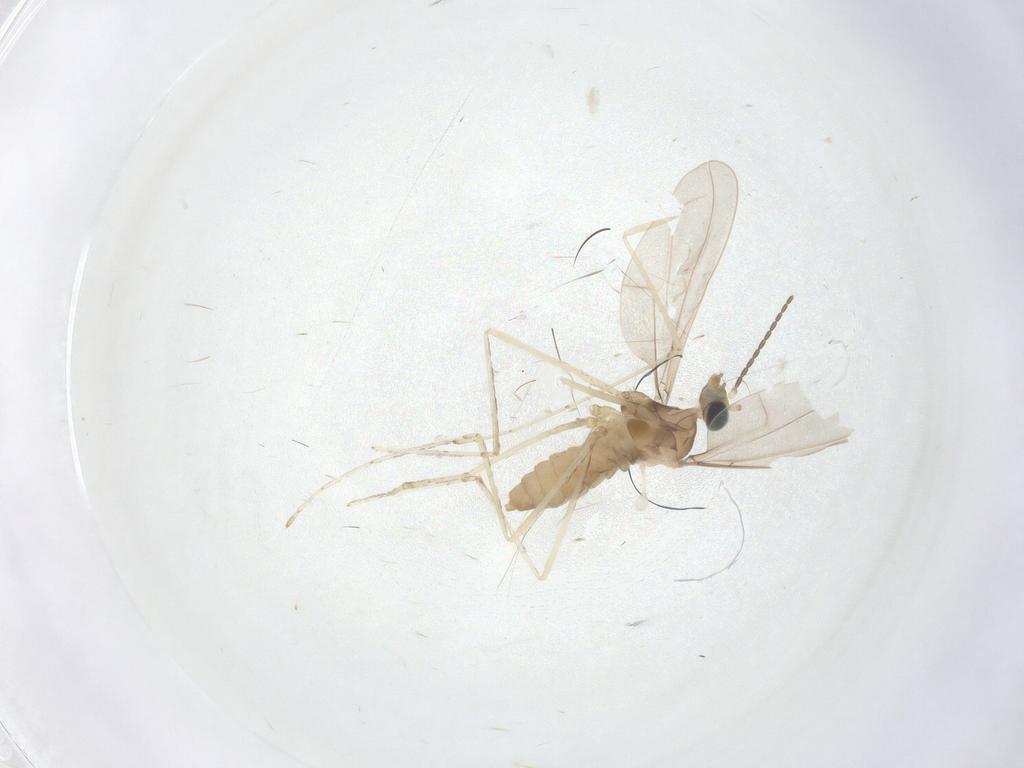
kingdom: Animalia
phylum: Arthropoda
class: Insecta
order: Diptera
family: Cecidomyiidae
